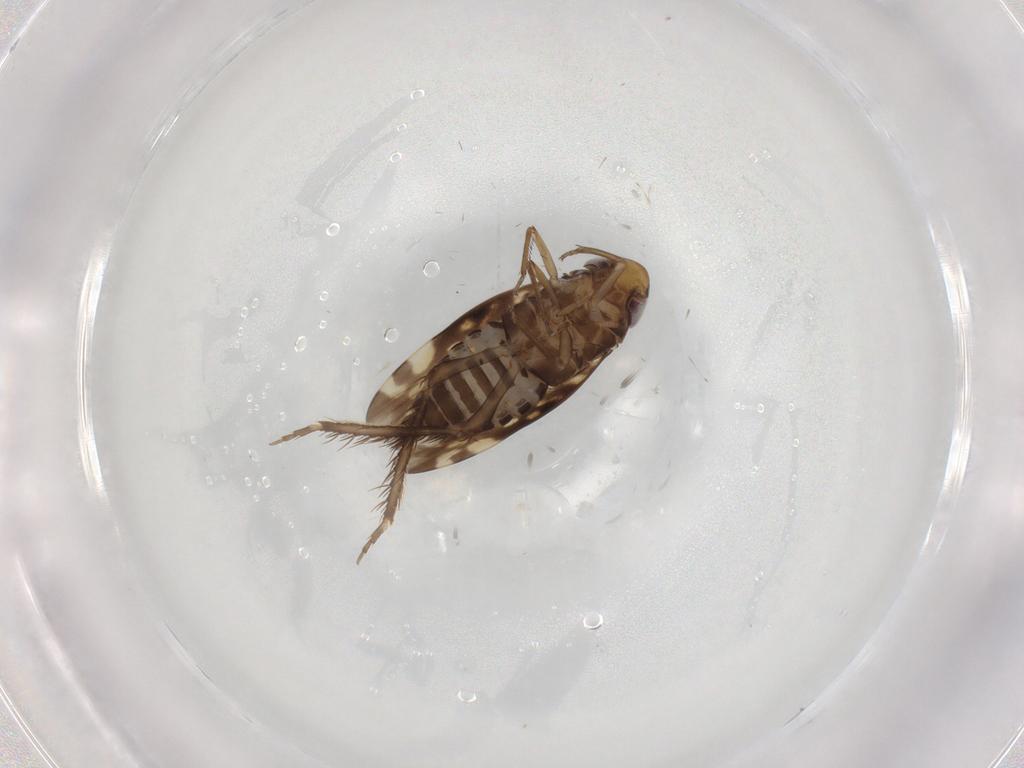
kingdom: Animalia
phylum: Arthropoda
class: Insecta
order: Hemiptera
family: Cicadellidae
